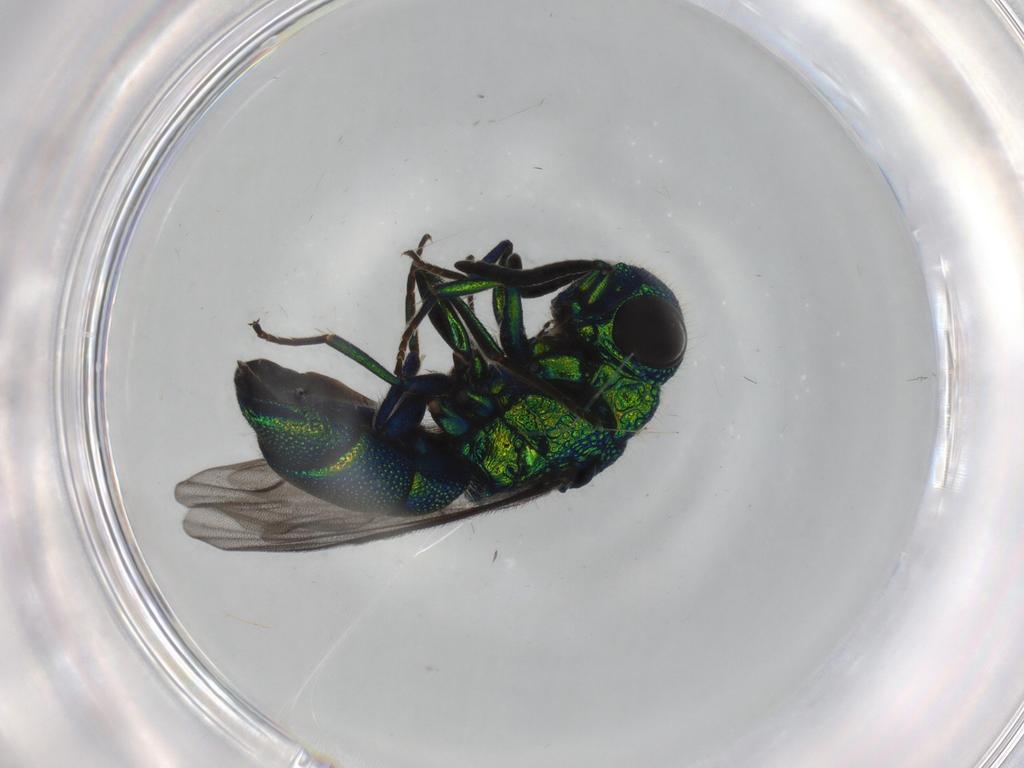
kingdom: Animalia
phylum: Arthropoda
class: Insecta
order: Hymenoptera
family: Chrysididae
